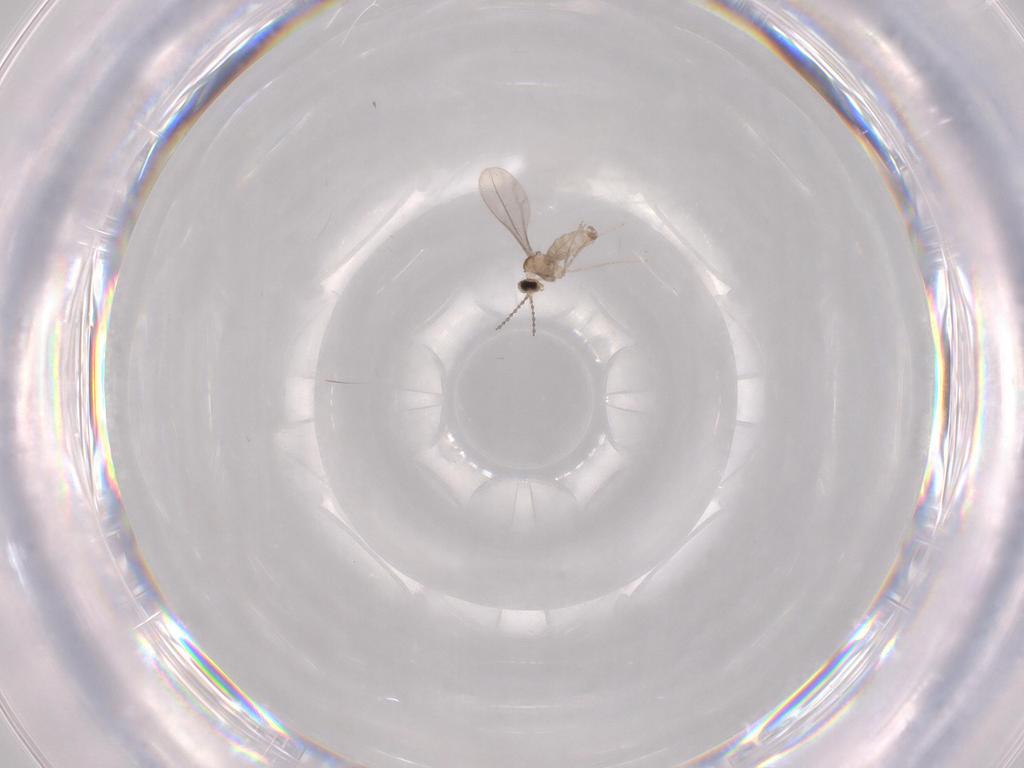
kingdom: Animalia
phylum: Arthropoda
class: Insecta
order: Diptera
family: Cecidomyiidae
